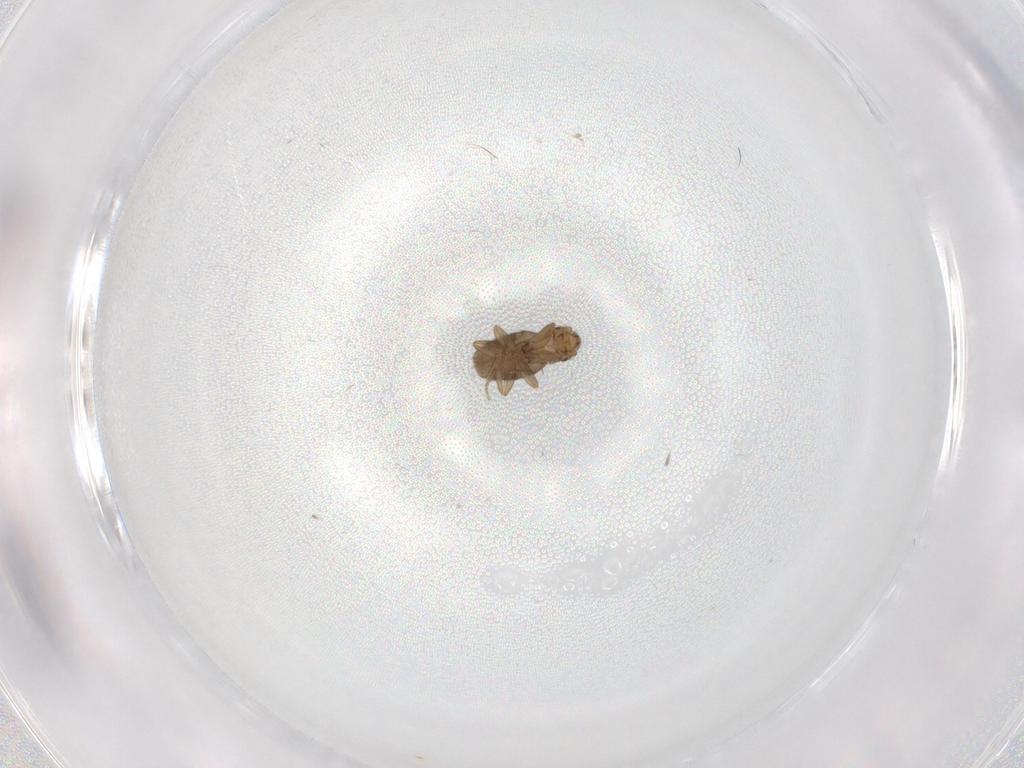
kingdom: Animalia
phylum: Arthropoda
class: Insecta
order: Diptera
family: Phoridae
